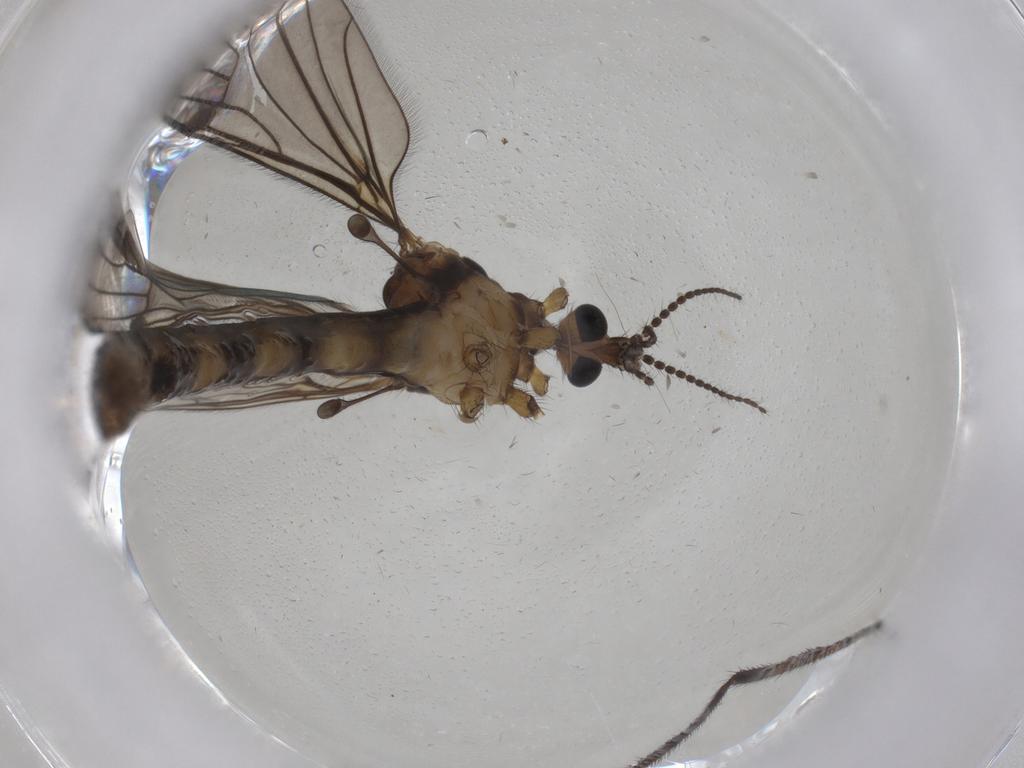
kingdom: Animalia
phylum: Arthropoda
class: Insecta
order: Diptera
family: Limoniidae
